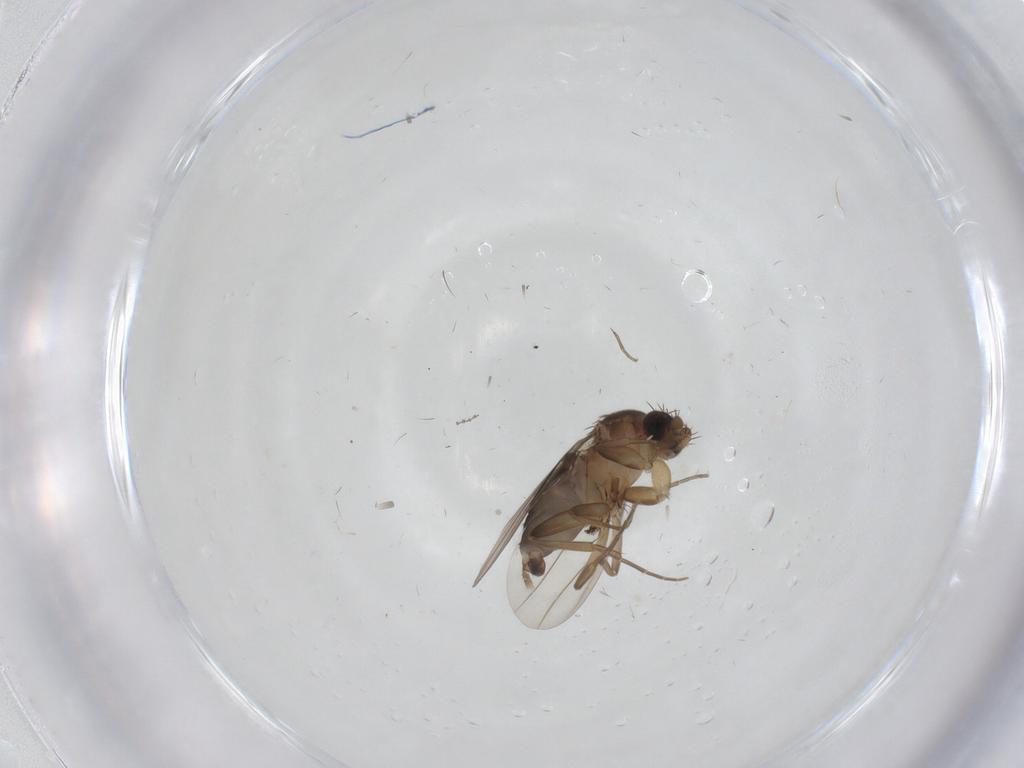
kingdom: Animalia
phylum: Arthropoda
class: Insecta
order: Diptera
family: Phoridae
